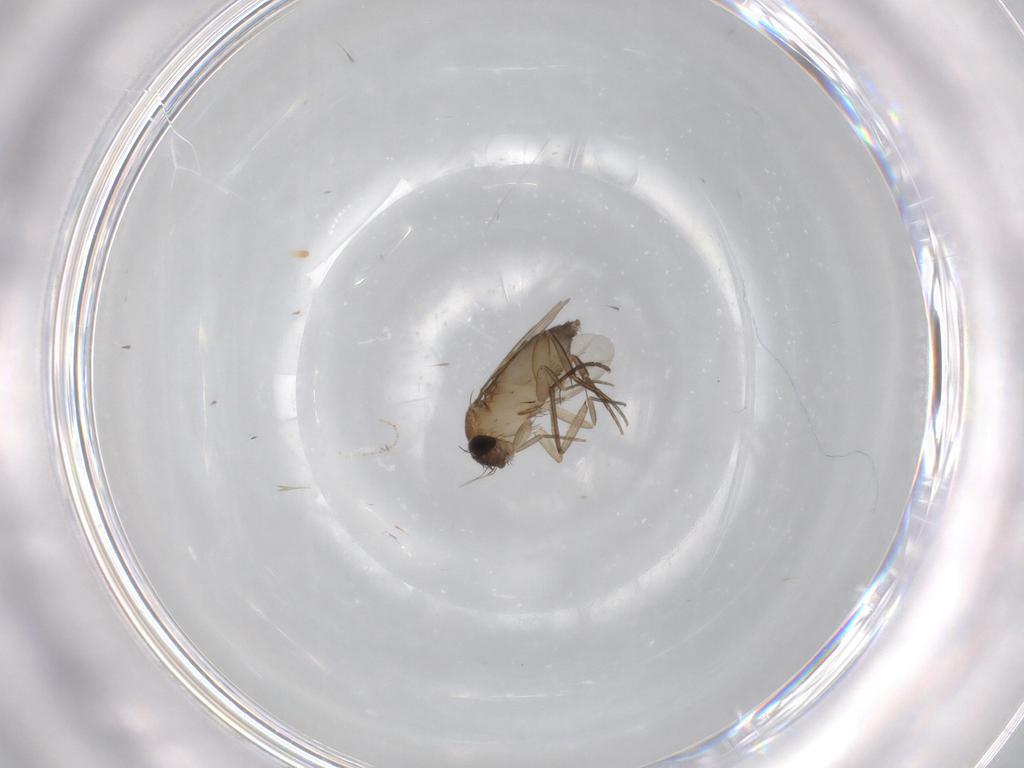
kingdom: Animalia
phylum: Arthropoda
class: Insecta
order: Diptera
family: Phoridae
